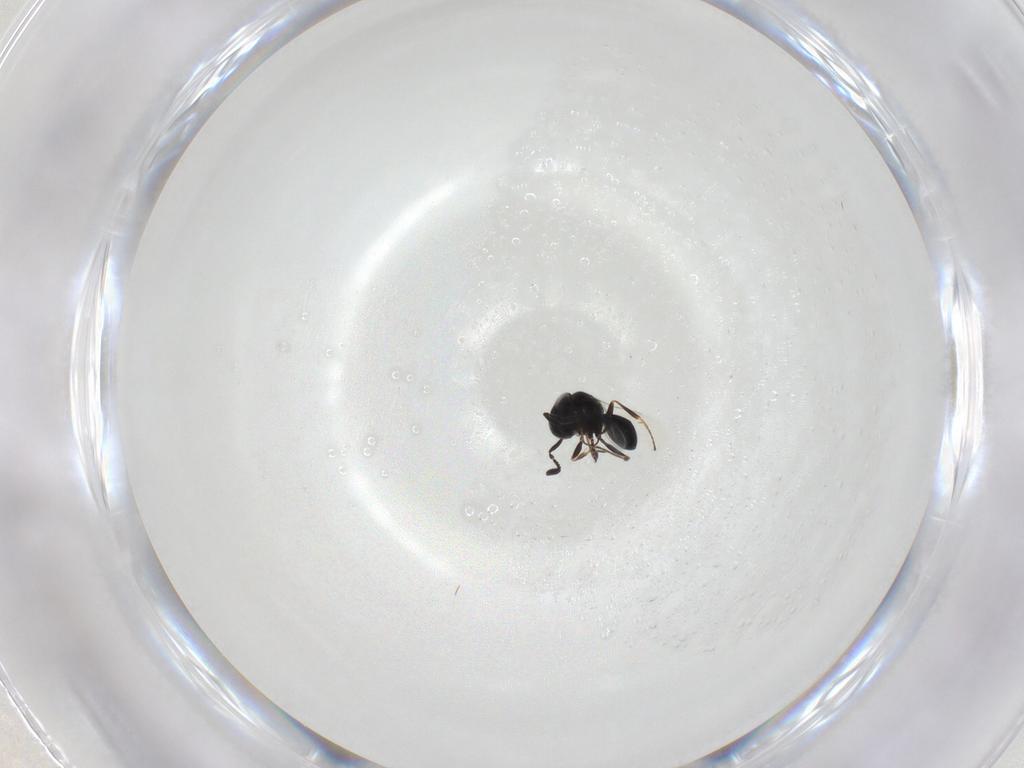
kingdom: Animalia
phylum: Arthropoda
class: Insecta
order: Hymenoptera
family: Scelionidae
